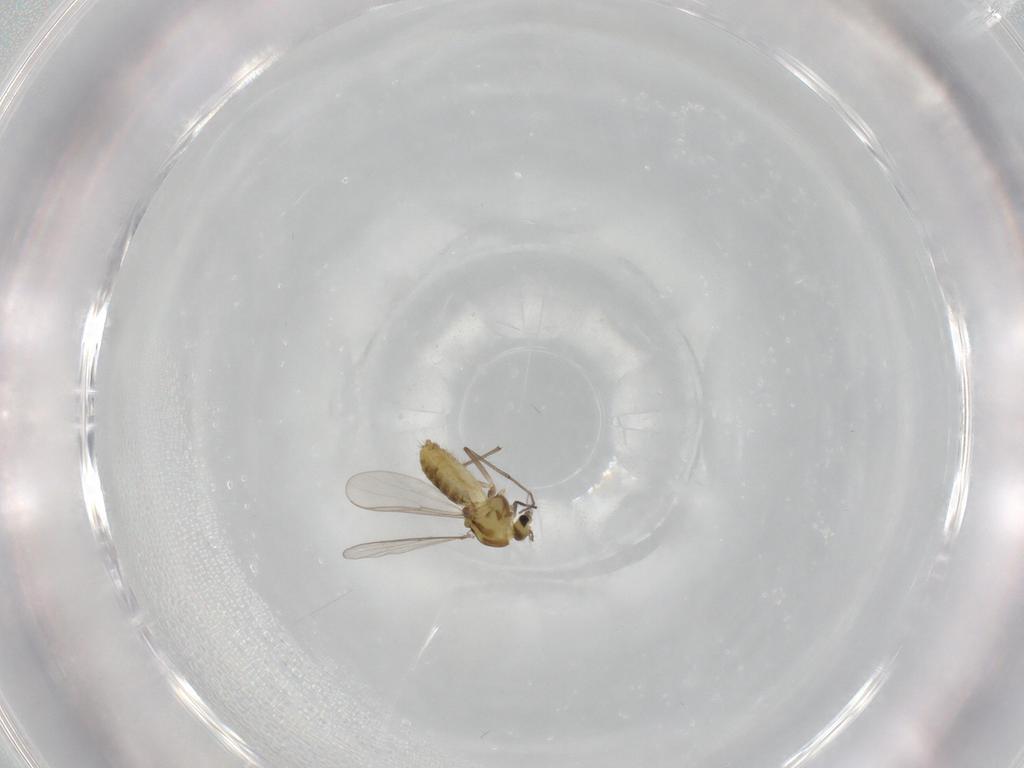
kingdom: Animalia
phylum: Arthropoda
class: Insecta
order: Diptera
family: Chironomidae
